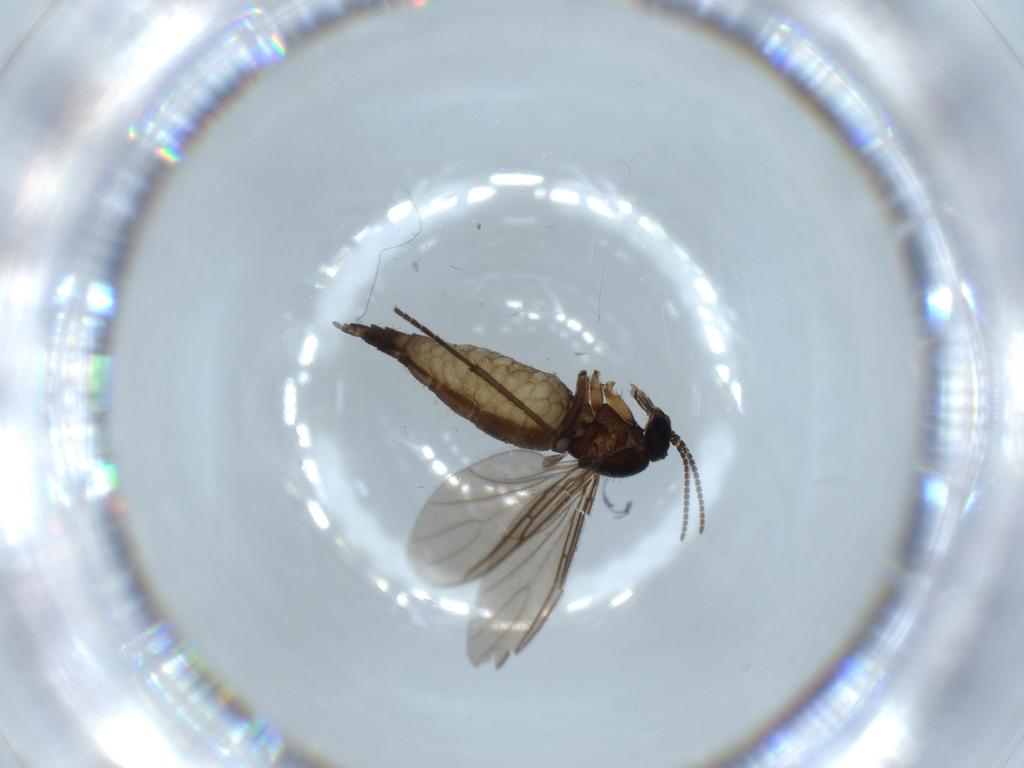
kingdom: Animalia
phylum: Arthropoda
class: Insecta
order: Diptera
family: Sciaridae
